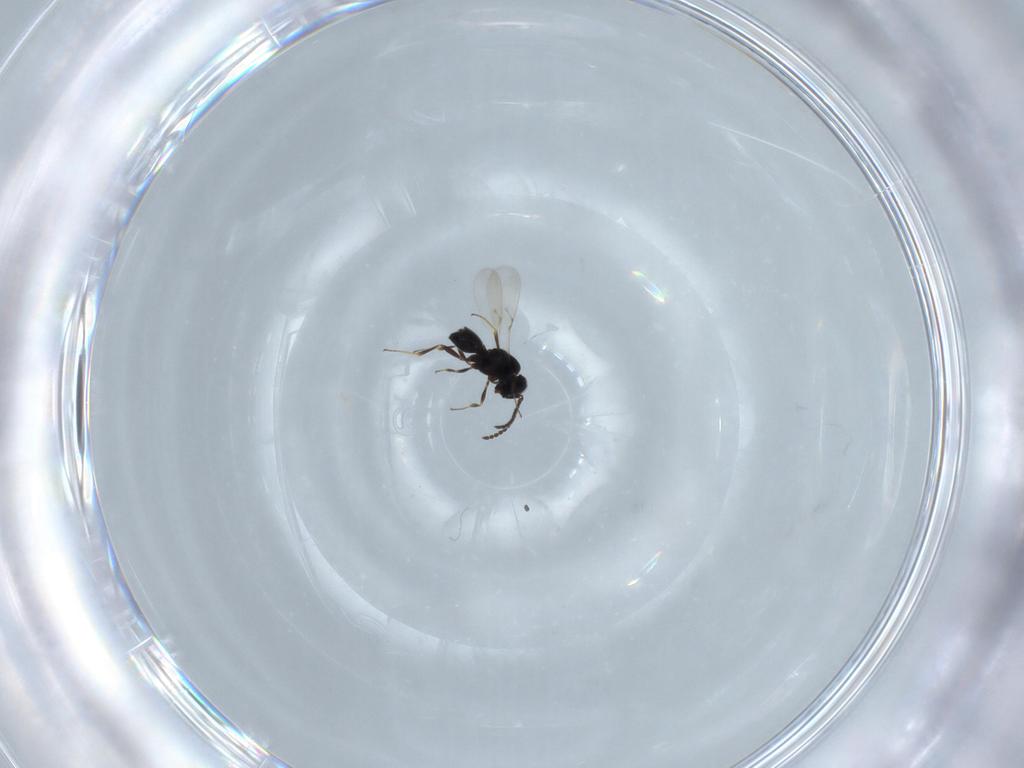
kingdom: Animalia
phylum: Arthropoda
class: Insecta
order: Hymenoptera
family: Scelionidae
